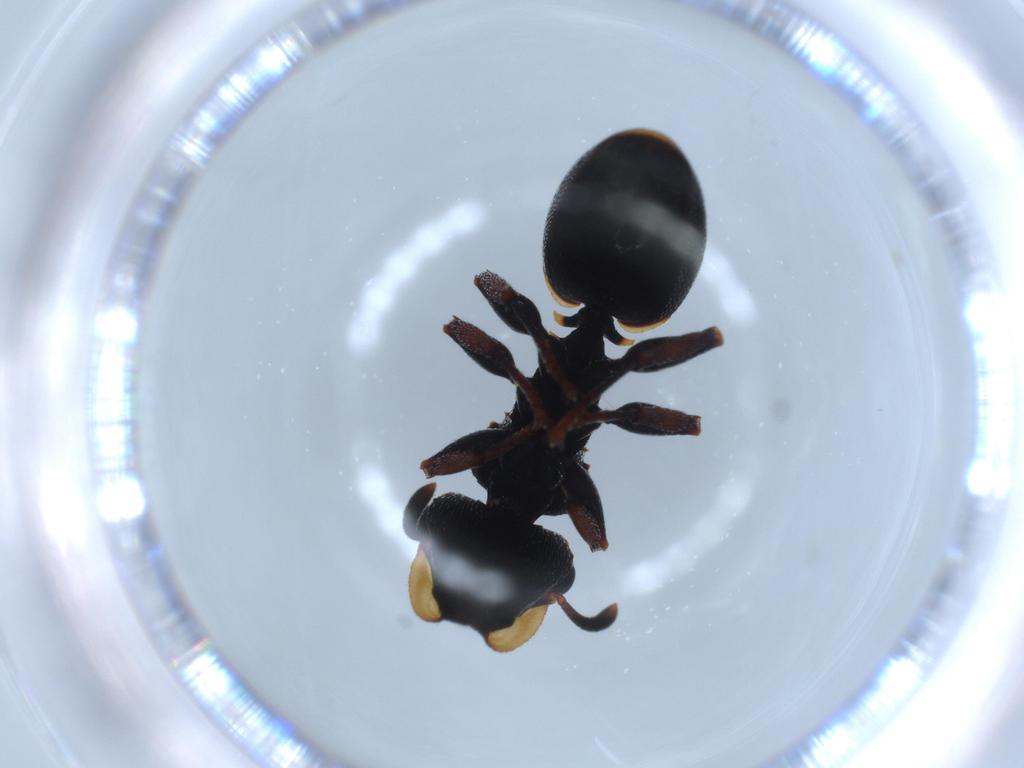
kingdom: Animalia
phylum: Arthropoda
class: Insecta
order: Hymenoptera
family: Formicidae
